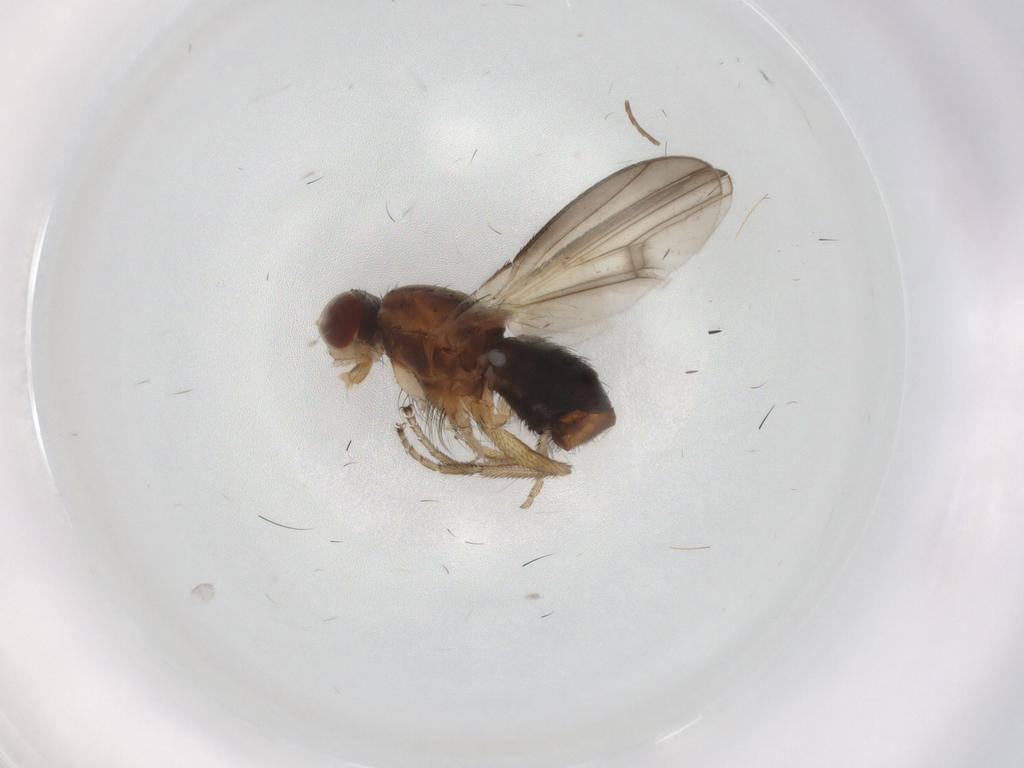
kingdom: Animalia
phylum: Arthropoda
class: Insecta
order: Diptera
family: Heleomyzidae
